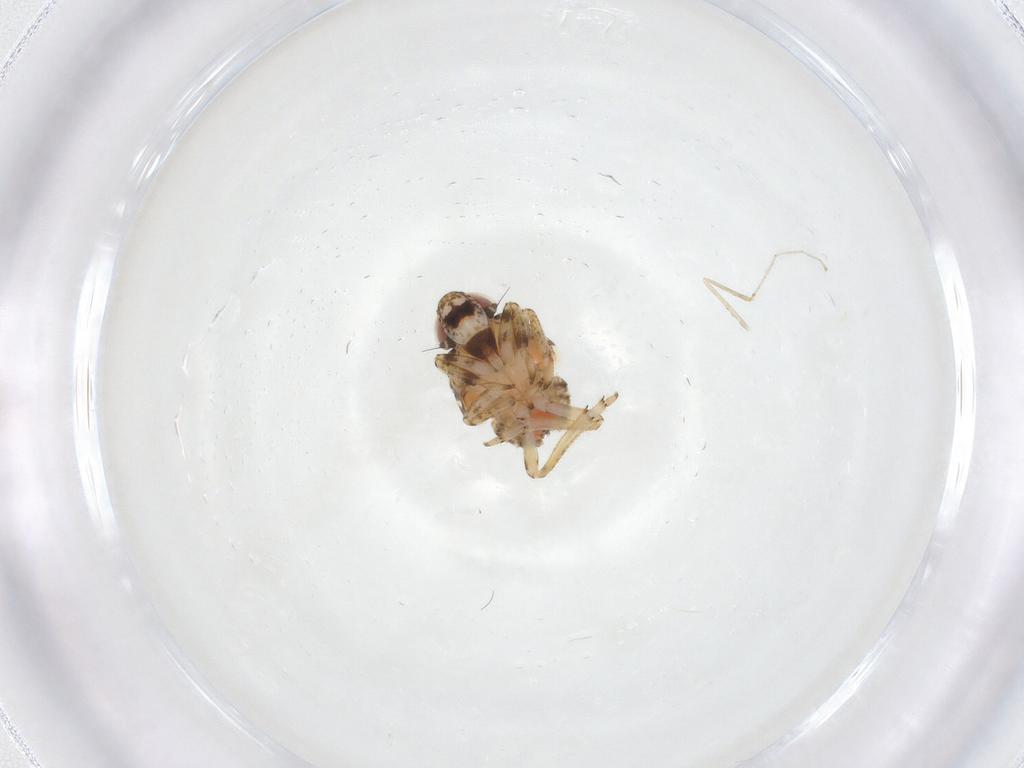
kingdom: Animalia
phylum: Arthropoda
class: Insecta
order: Hemiptera
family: Issidae
